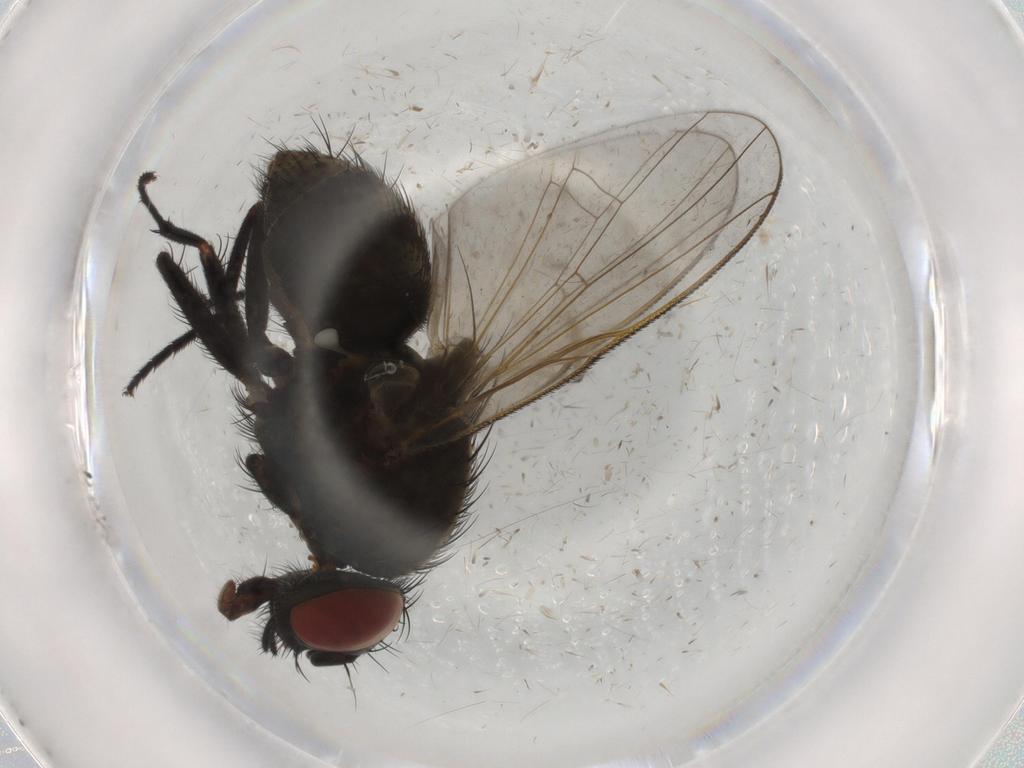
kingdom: Animalia
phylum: Arthropoda
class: Insecta
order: Diptera
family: Muscidae
